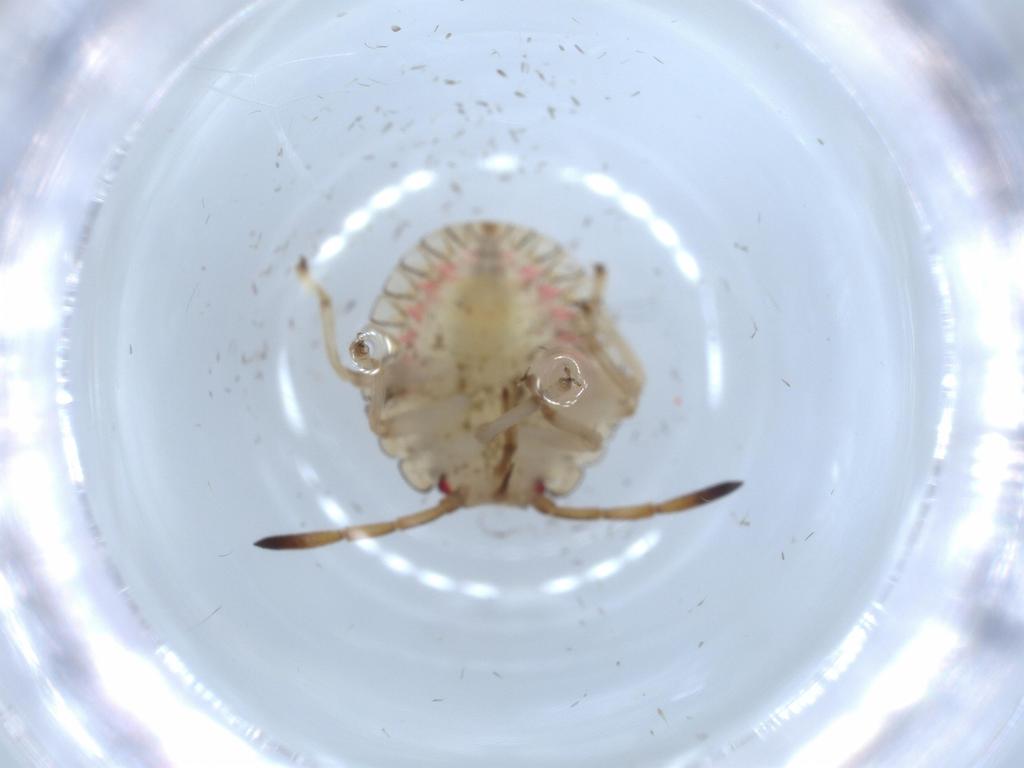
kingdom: Animalia
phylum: Arthropoda
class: Insecta
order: Hemiptera
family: Pentatomidae
